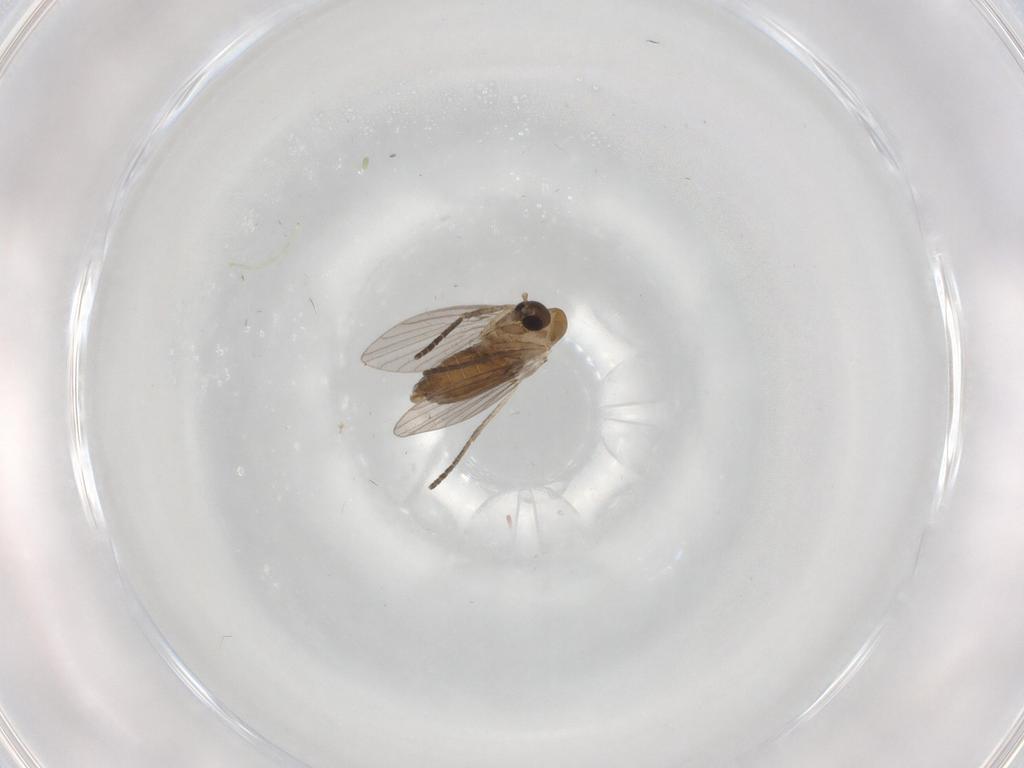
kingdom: Animalia
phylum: Arthropoda
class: Insecta
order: Diptera
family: Psychodidae
